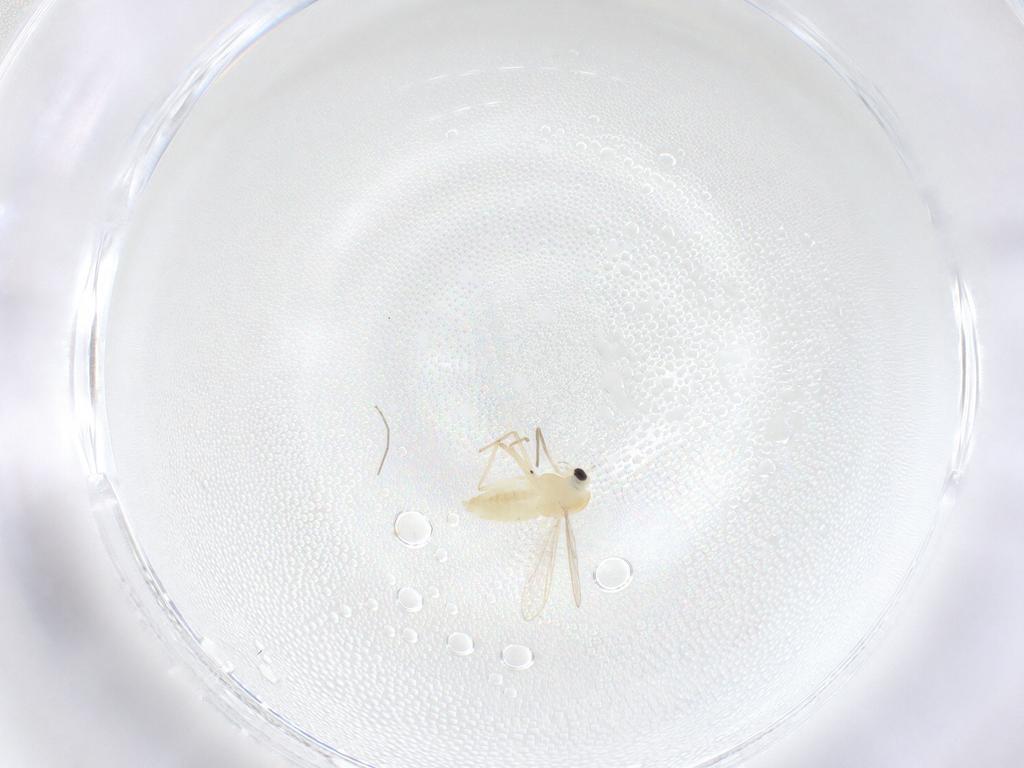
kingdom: Animalia
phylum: Arthropoda
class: Insecta
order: Diptera
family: Chironomidae
